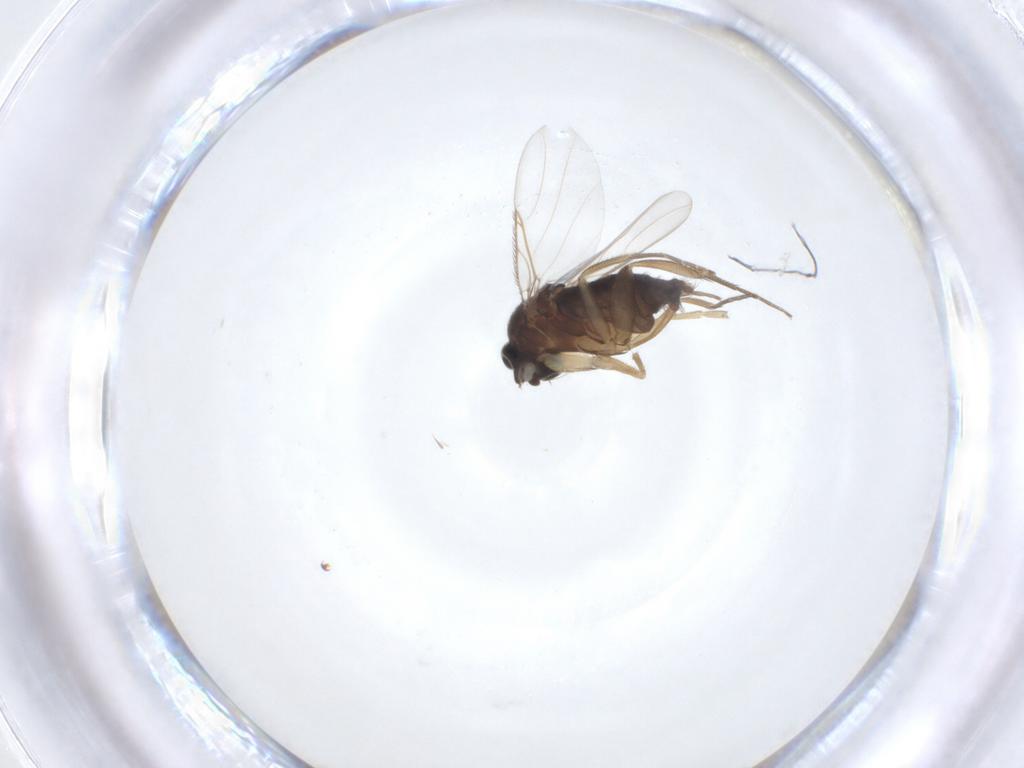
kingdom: Animalia
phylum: Arthropoda
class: Insecta
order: Diptera
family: Phoridae
